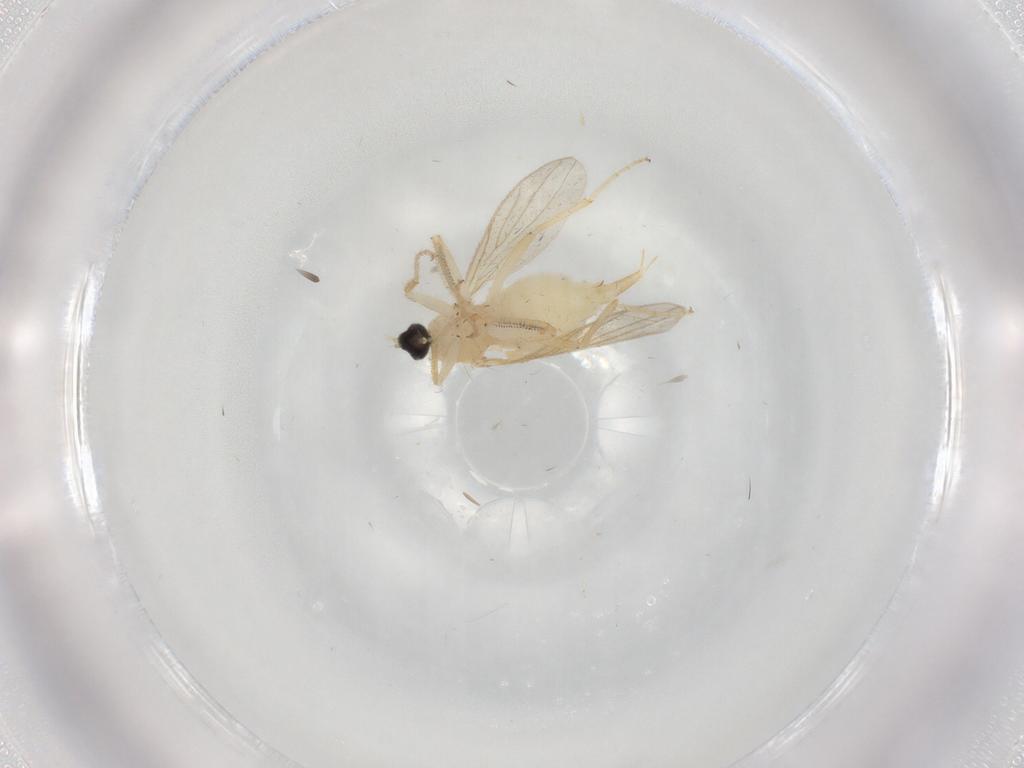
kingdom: Animalia
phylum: Arthropoda
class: Insecta
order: Diptera
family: Cecidomyiidae
